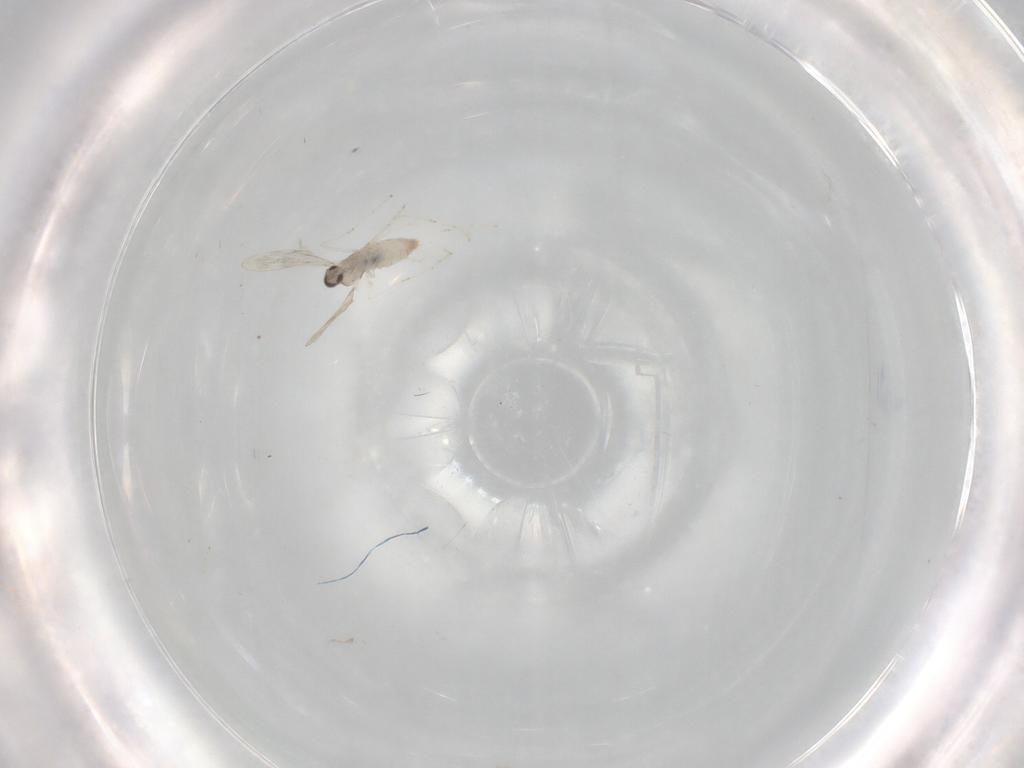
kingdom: Animalia
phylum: Arthropoda
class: Insecta
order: Diptera
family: Cecidomyiidae
